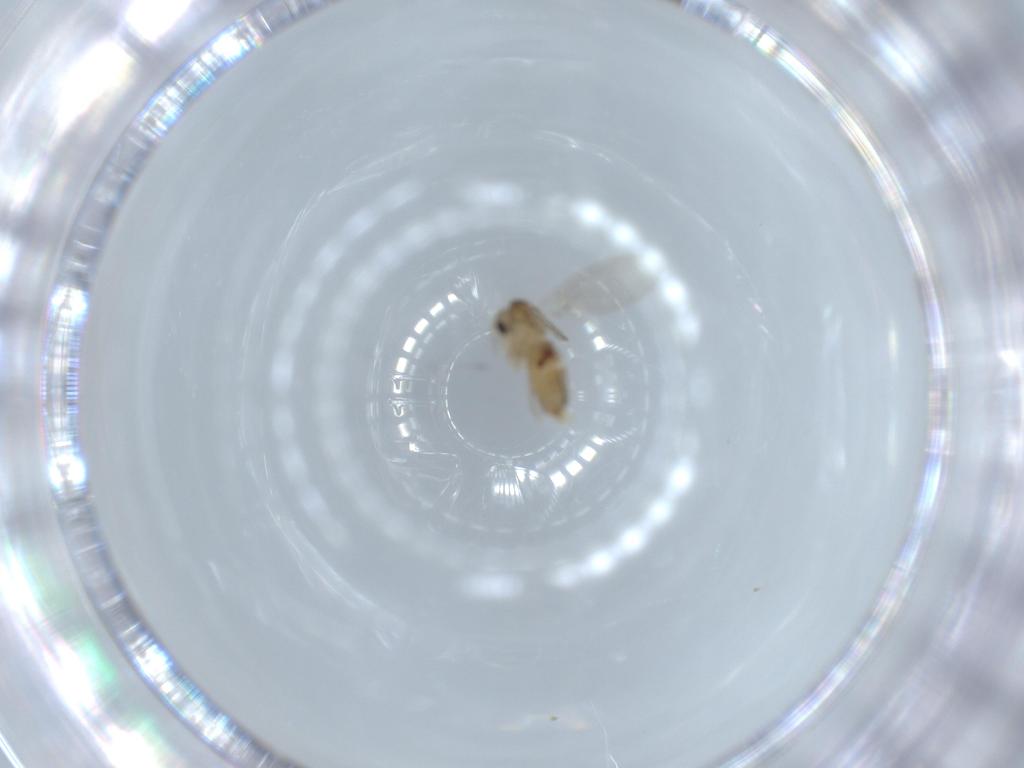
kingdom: Animalia
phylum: Arthropoda
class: Insecta
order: Diptera
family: Psychodidae
